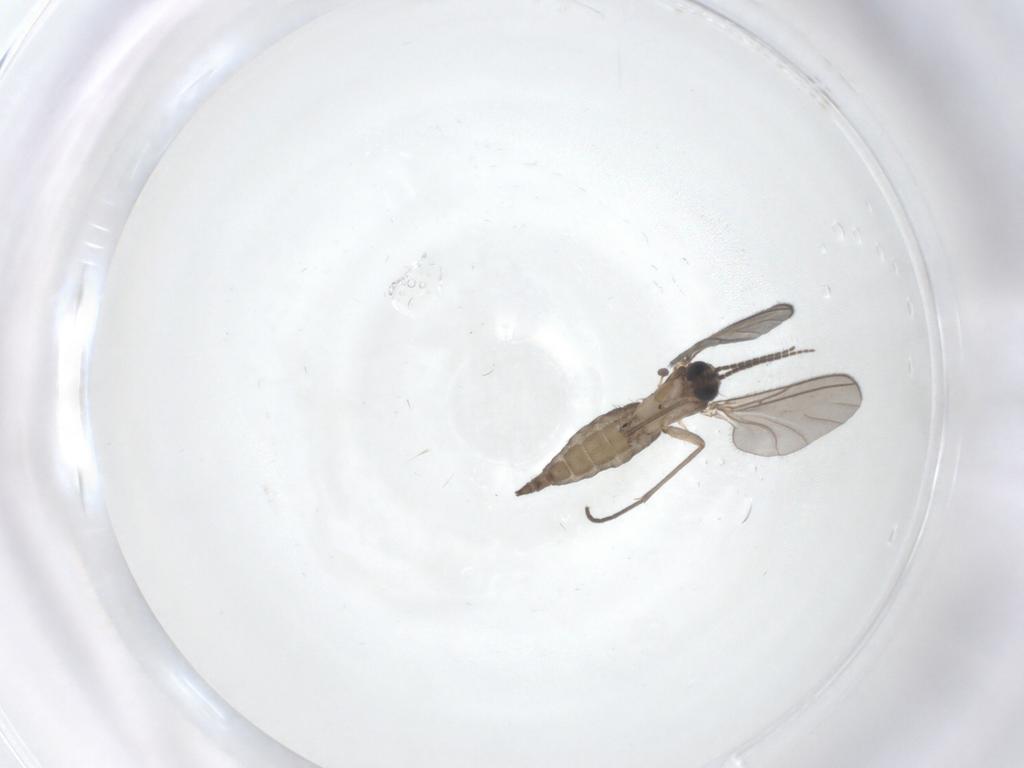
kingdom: Animalia
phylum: Arthropoda
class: Insecta
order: Diptera
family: Sciaridae
